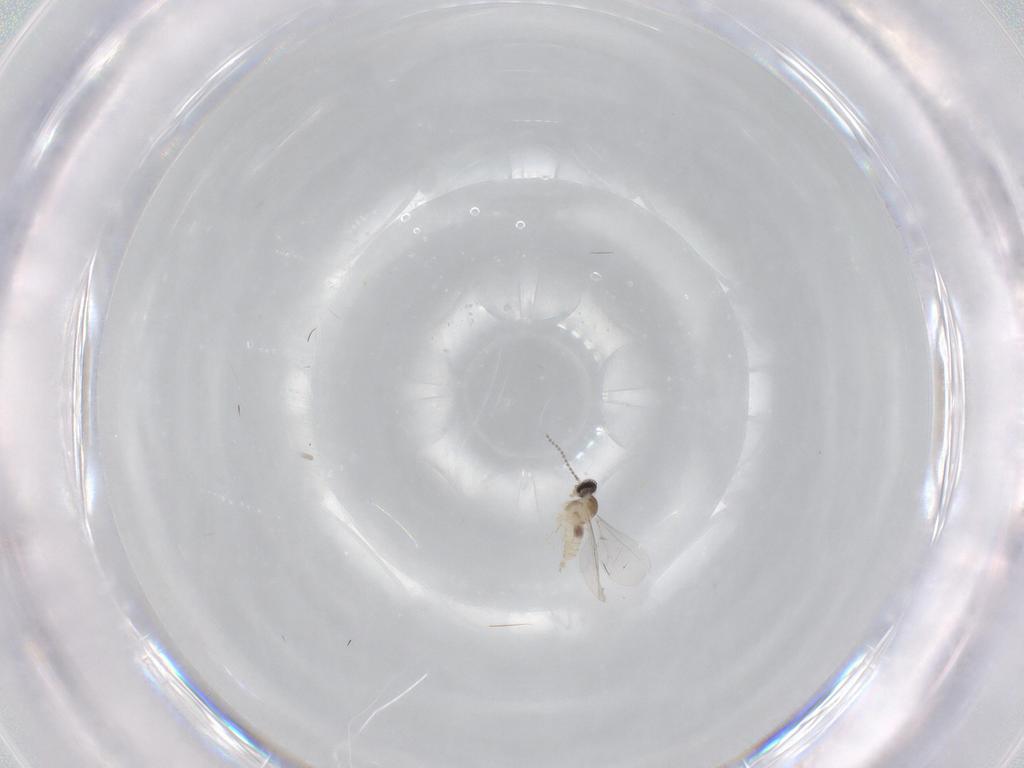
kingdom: Animalia
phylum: Arthropoda
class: Insecta
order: Diptera
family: Cecidomyiidae
